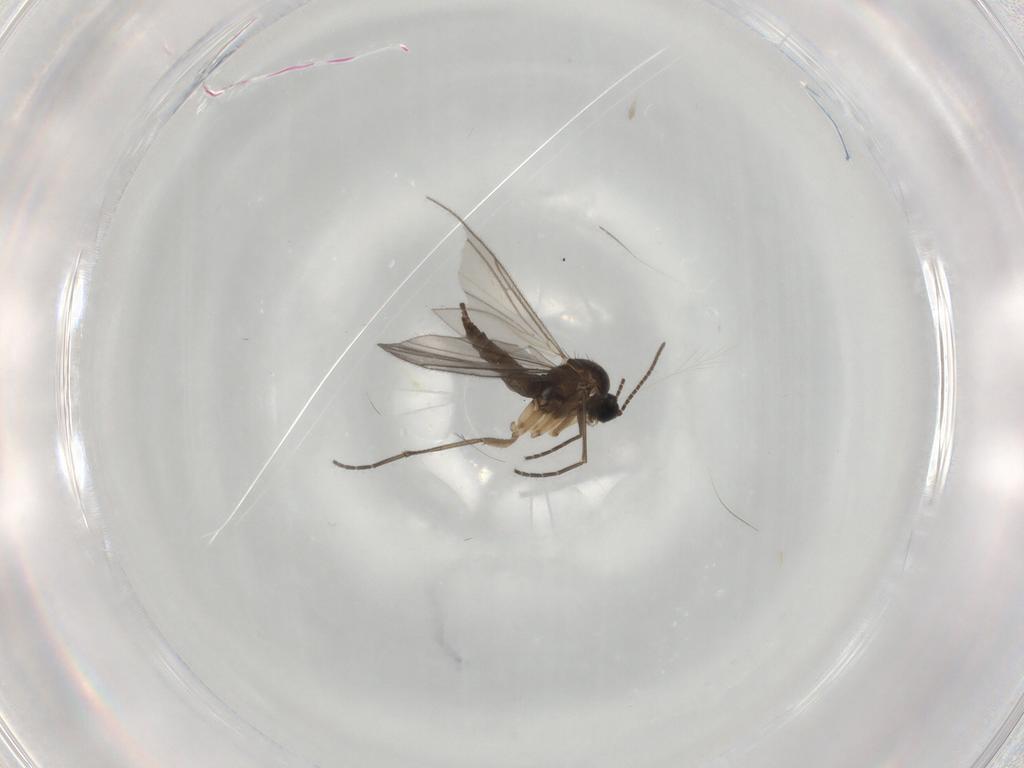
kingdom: Animalia
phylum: Arthropoda
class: Insecta
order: Diptera
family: Sciaridae
